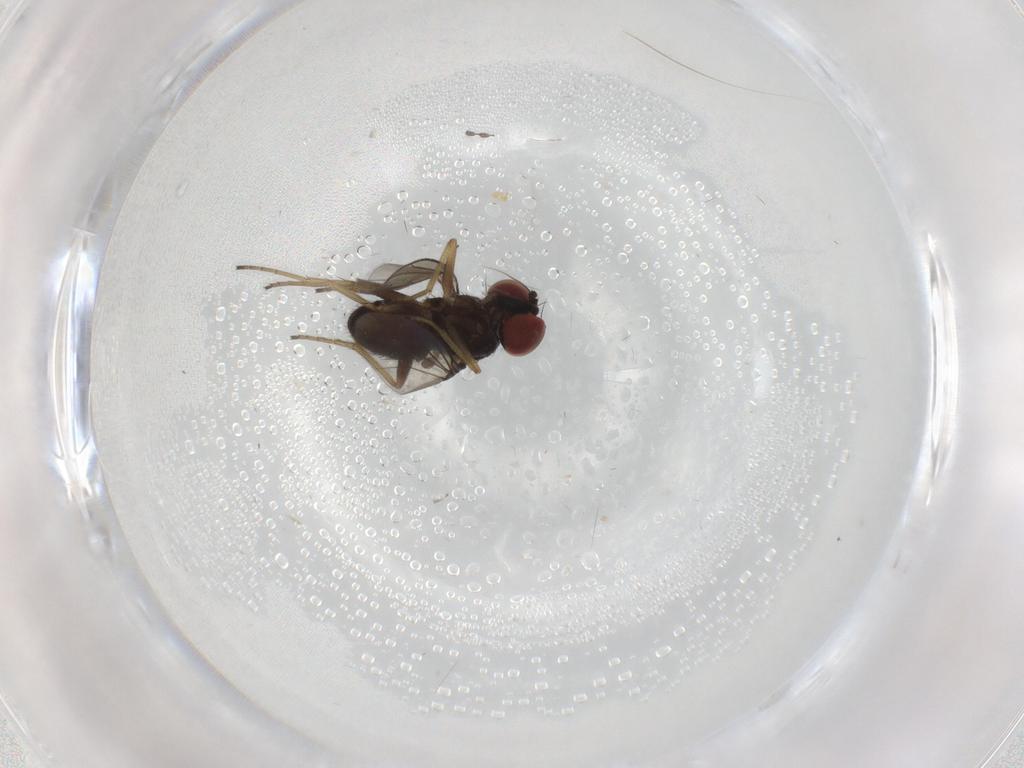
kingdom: Animalia
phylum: Arthropoda
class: Insecta
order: Diptera
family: Dolichopodidae
